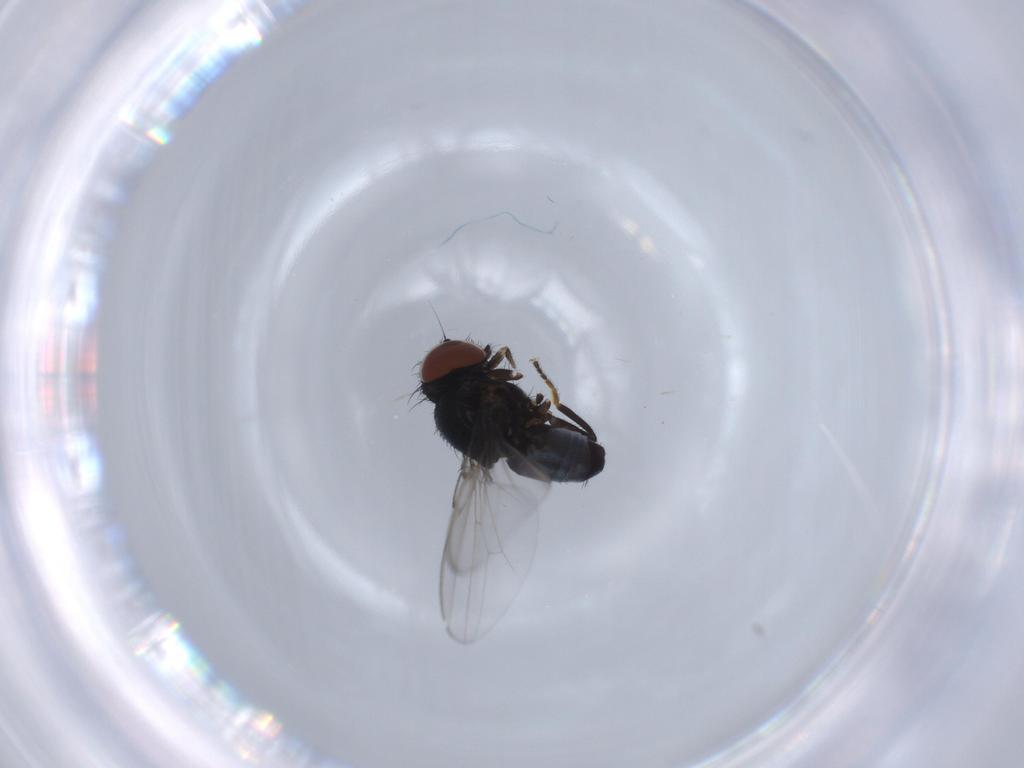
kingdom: Animalia
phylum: Arthropoda
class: Insecta
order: Diptera
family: Milichiidae
